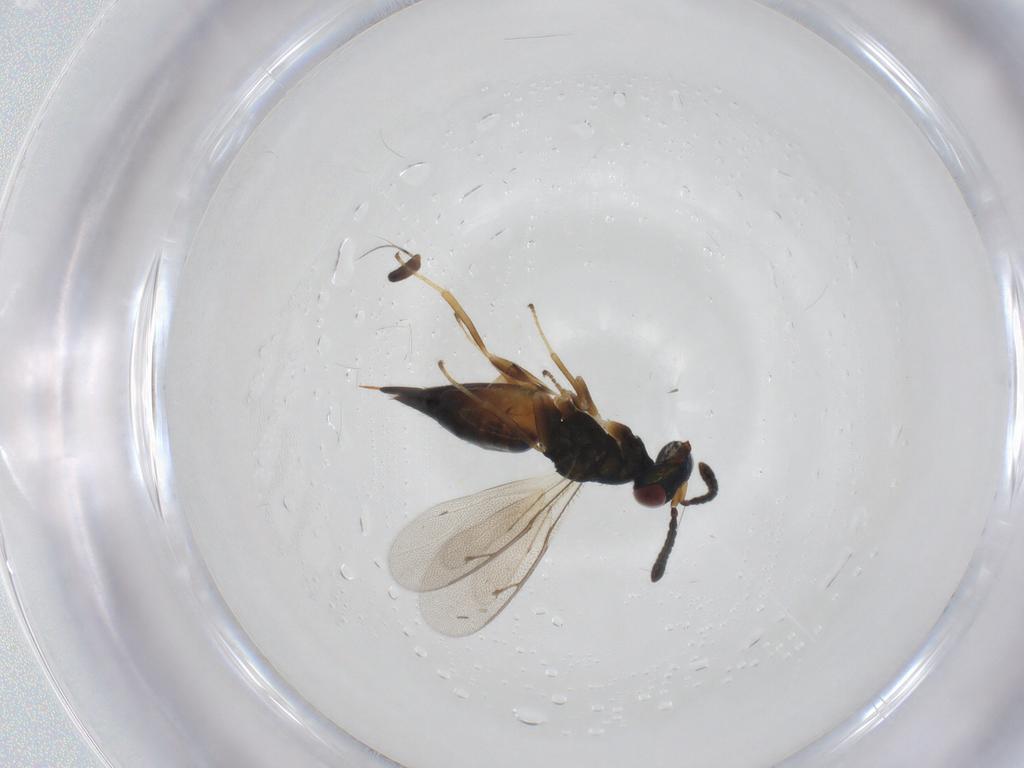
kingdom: Animalia
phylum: Arthropoda
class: Insecta
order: Hymenoptera
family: Pteromalidae
